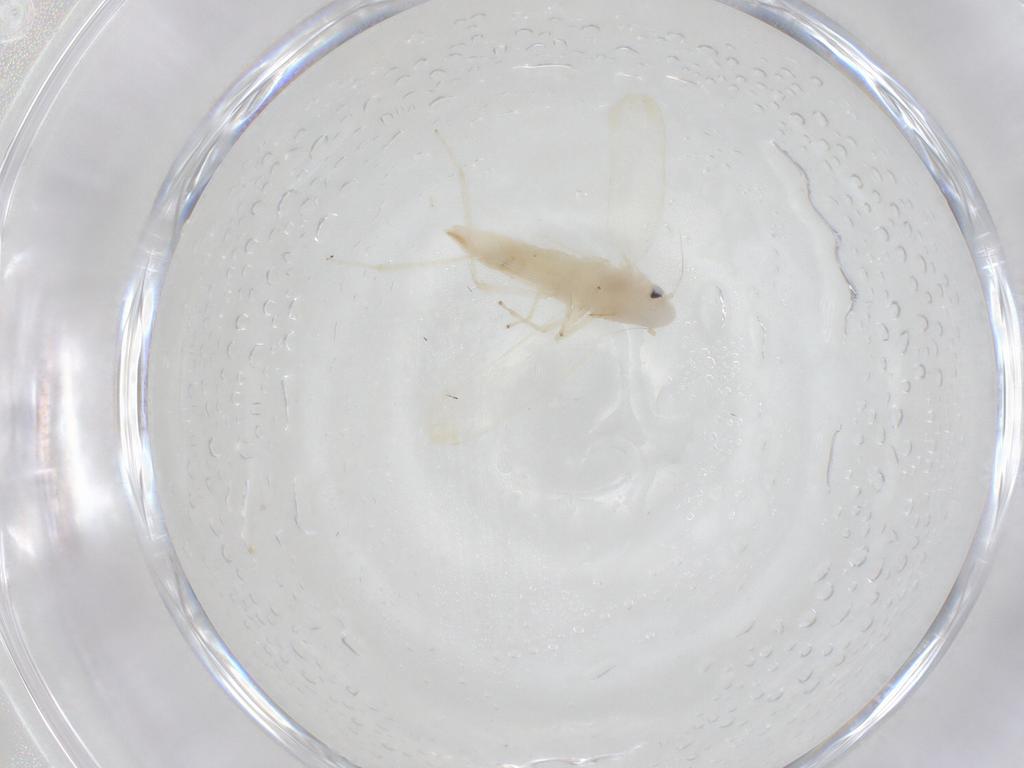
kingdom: Animalia
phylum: Arthropoda
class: Insecta
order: Hemiptera
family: Cicadellidae
